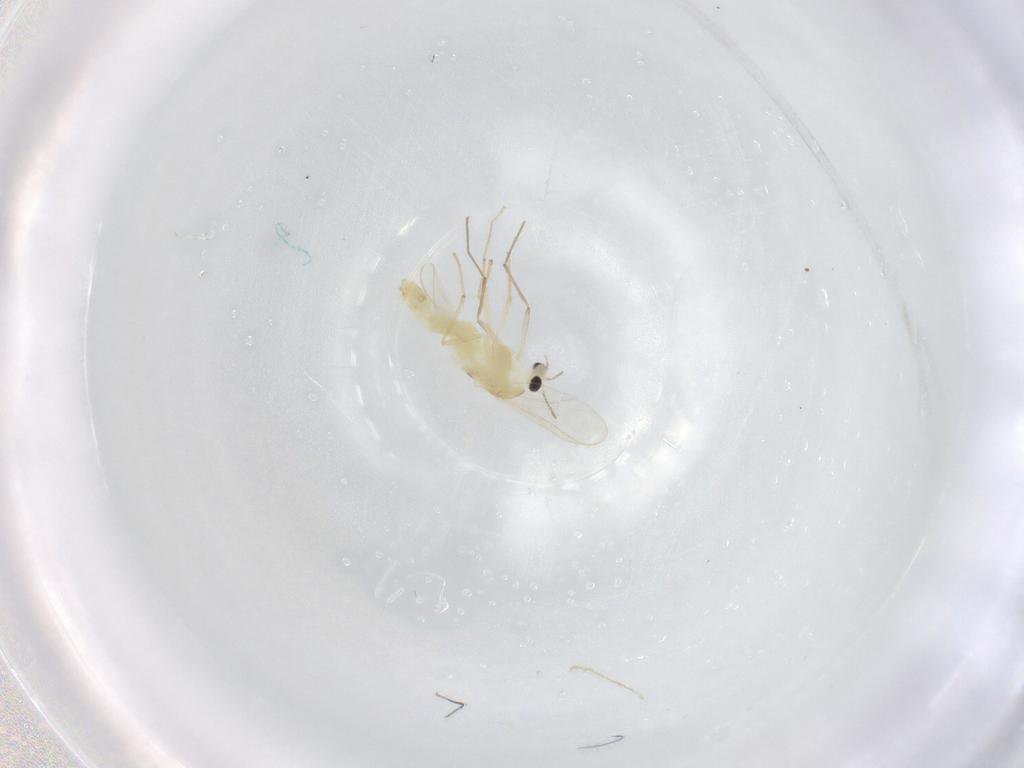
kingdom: Animalia
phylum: Arthropoda
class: Insecta
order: Diptera
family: Chironomidae
